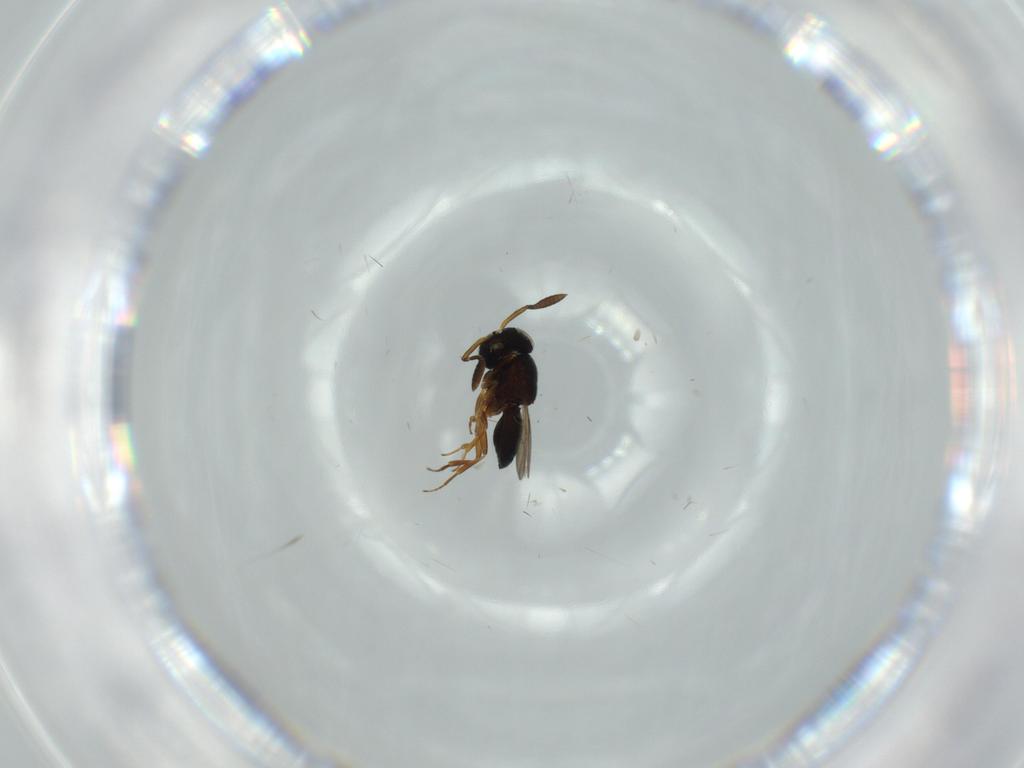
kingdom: Animalia
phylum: Arthropoda
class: Insecta
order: Hymenoptera
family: Scelionidae
